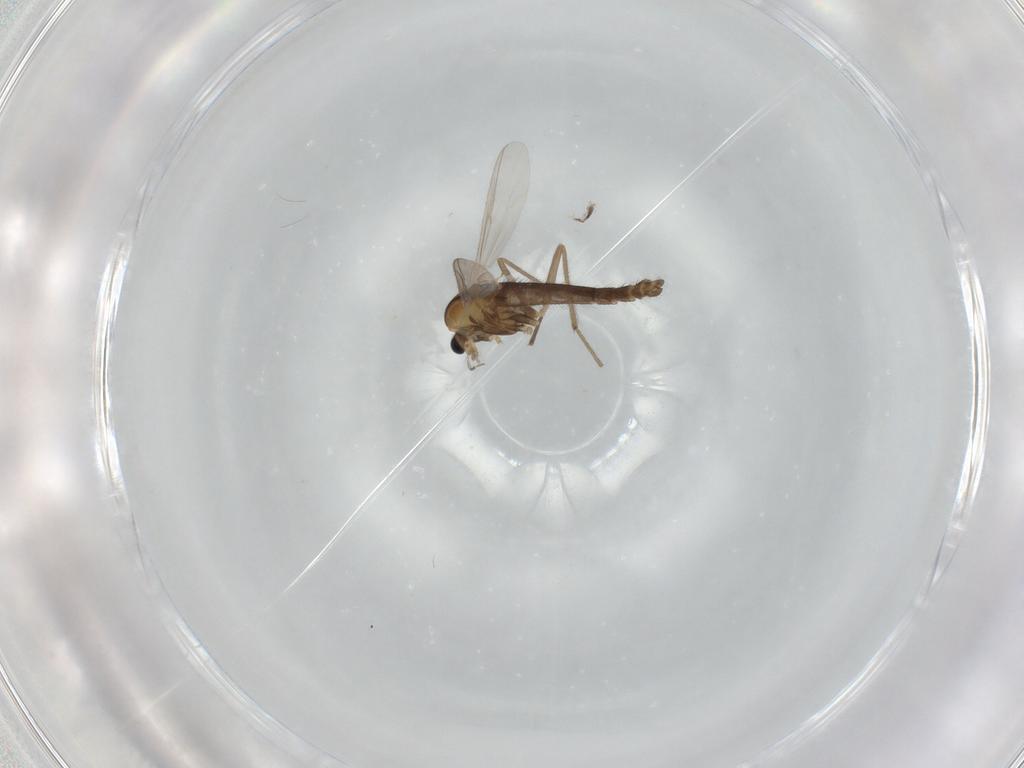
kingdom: Animalia
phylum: Arthropoda
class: Insecta
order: Diptera
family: Chironomidae
